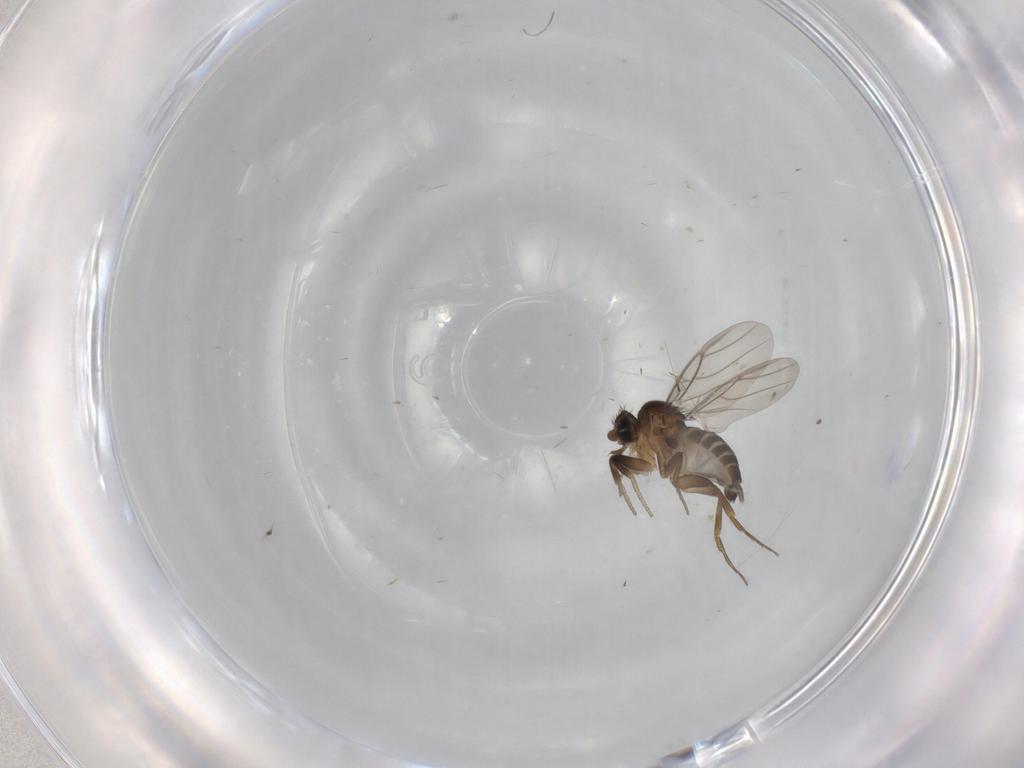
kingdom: Animalia
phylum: Arthropoda
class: Insecta
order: Diptera
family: Phoridae
